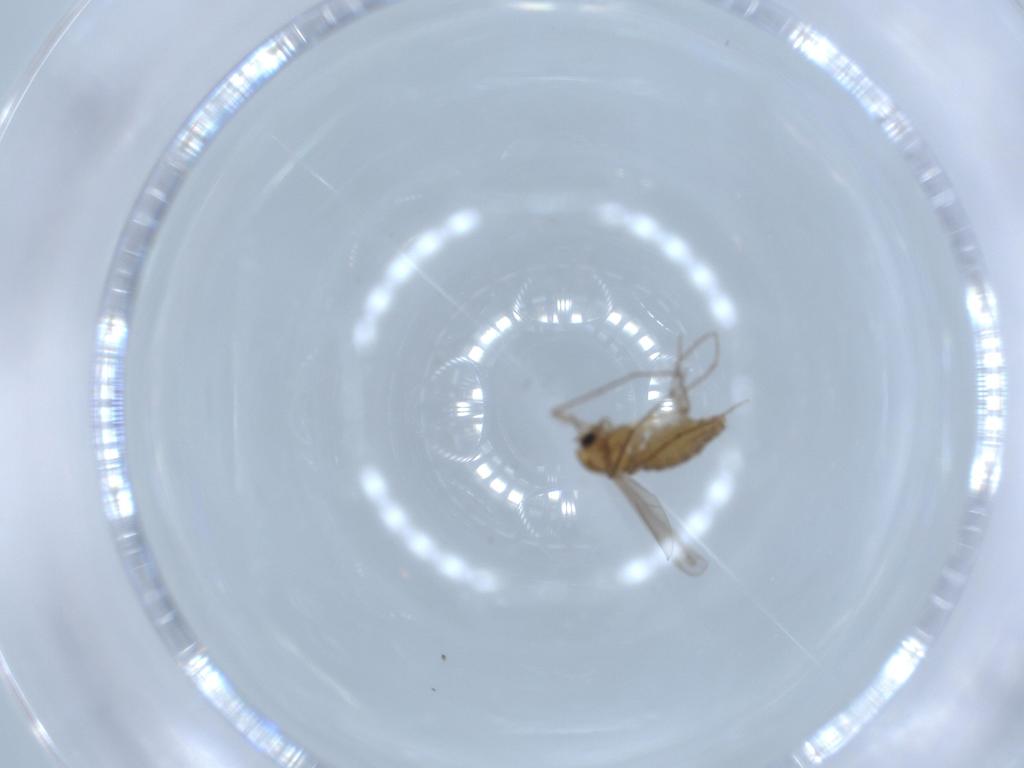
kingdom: Animalia
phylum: Arthropoda
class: Insecta
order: Diptera
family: Chironomidae
